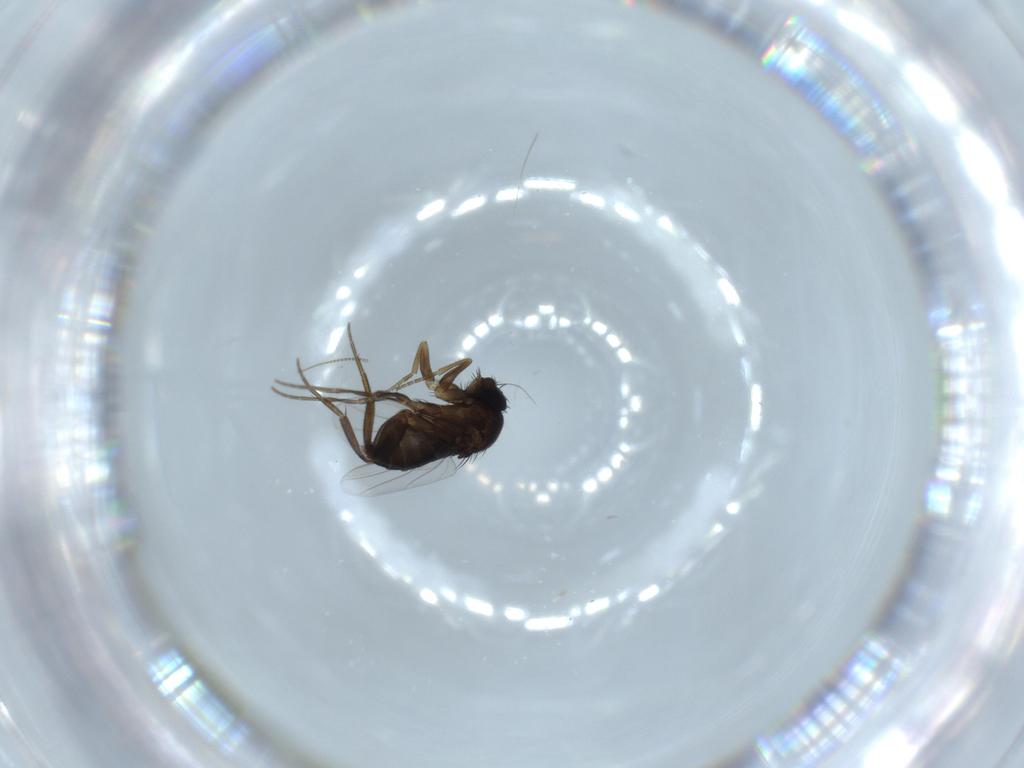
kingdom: Animalia
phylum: Arthropoda
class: Insecta
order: Diptera
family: Phoridae
